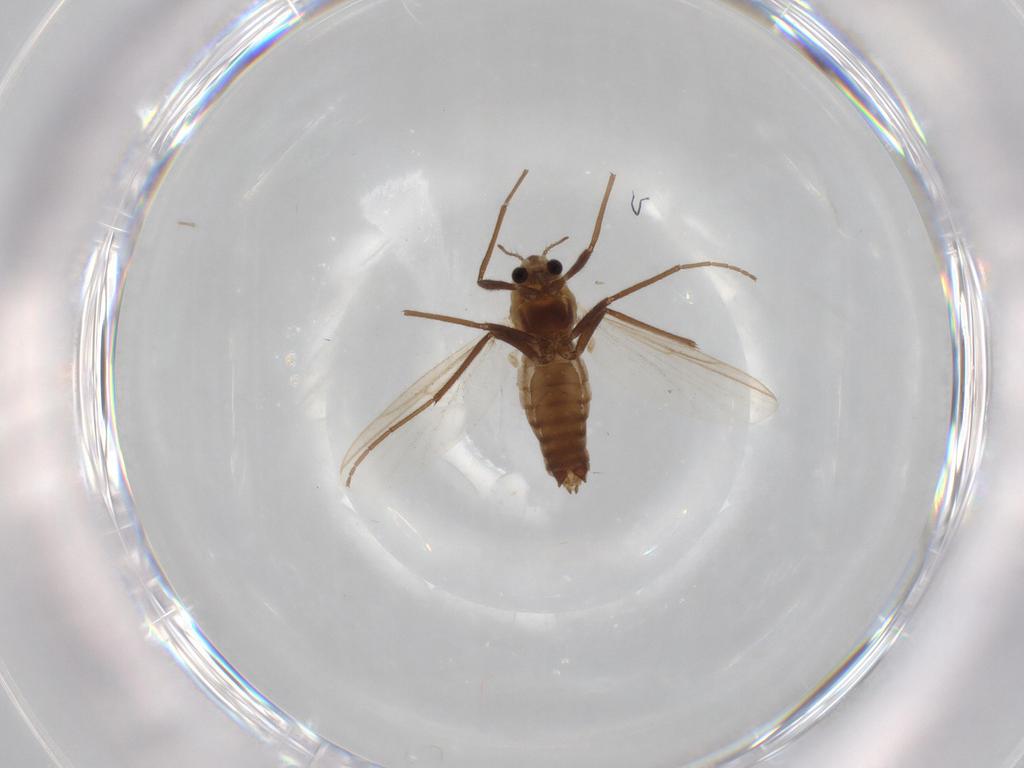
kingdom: Animalia
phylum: Arthropoda
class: Insecta
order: Diptera
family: Chironomidae
